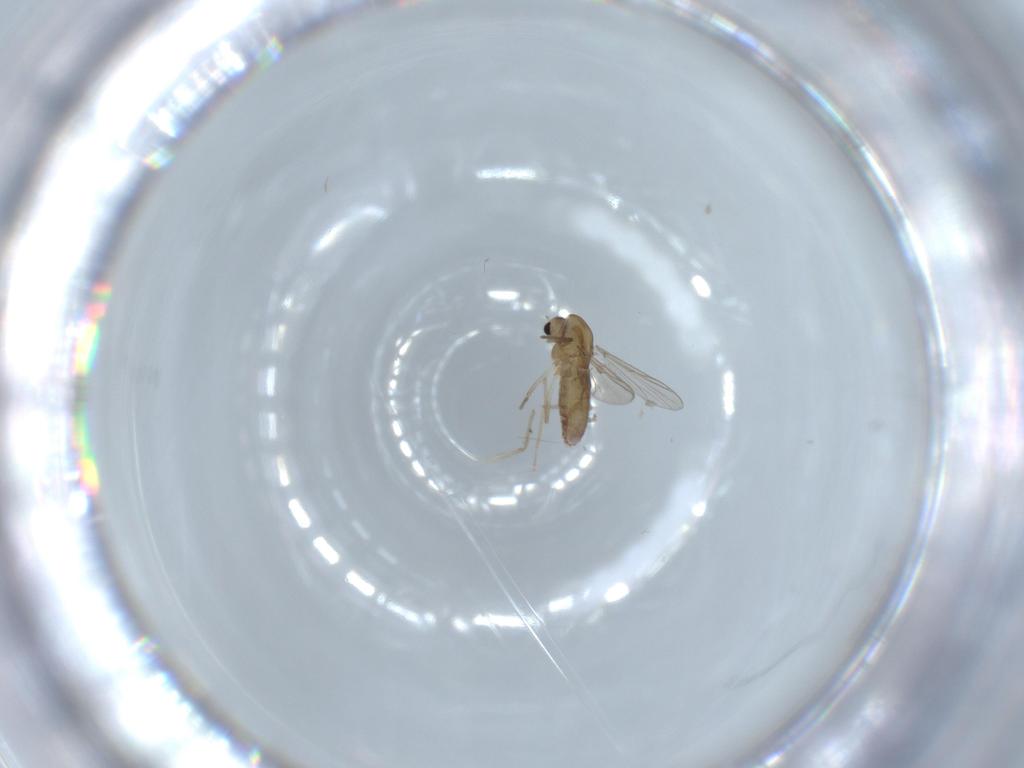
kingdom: Animalia
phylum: Arthropoda
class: Insecta
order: Diptera
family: Chironomidae
